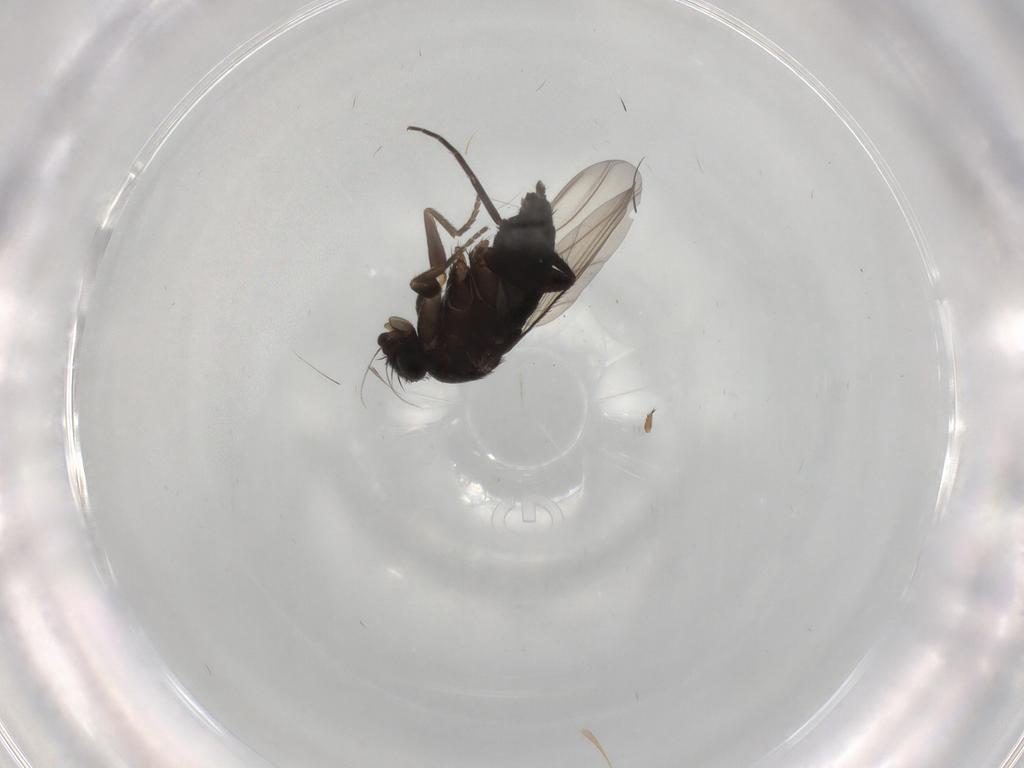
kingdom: Animalia
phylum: Arthropoda
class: Insecta
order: Diptera
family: Phoridae
